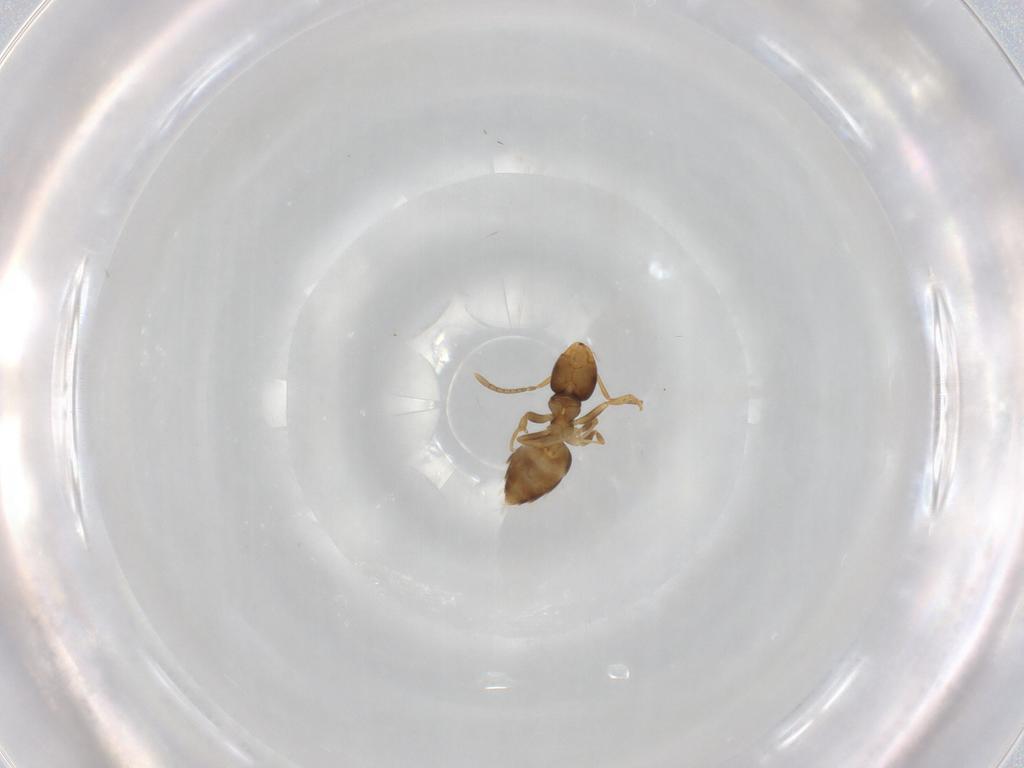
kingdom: Animalia
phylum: Arthropoda
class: Insecta
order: Hymenoptera
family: Formicidae
